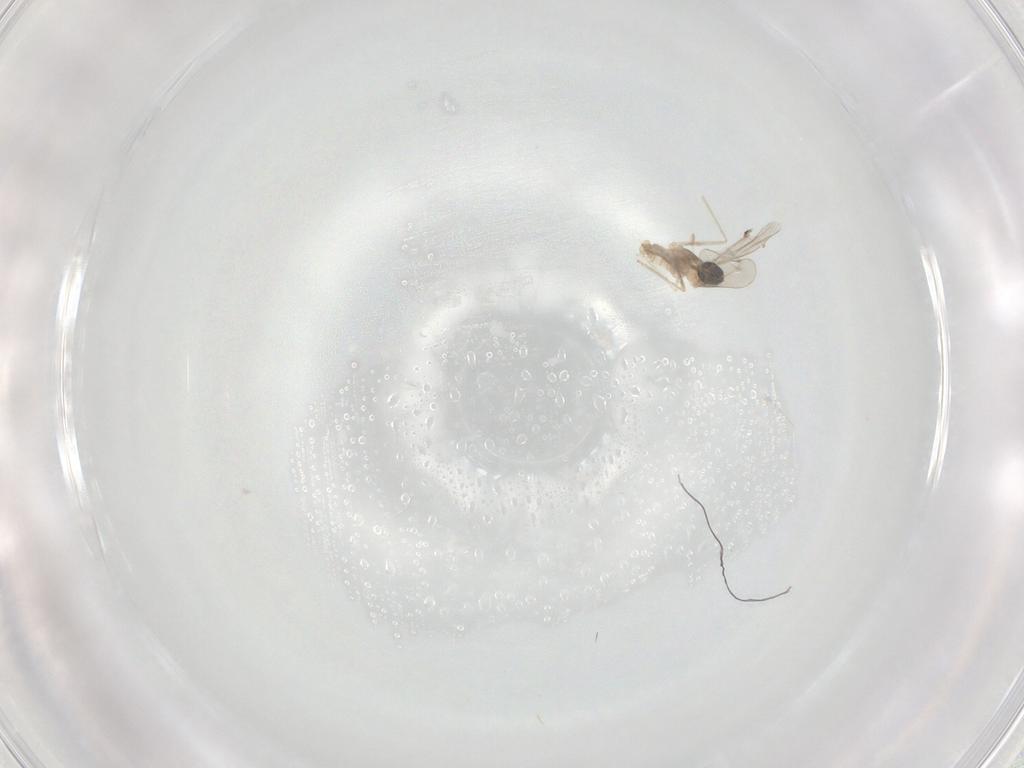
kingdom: Animalia
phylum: Arthropoda
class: Insecta
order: Diptera
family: Cecidomyiidae
